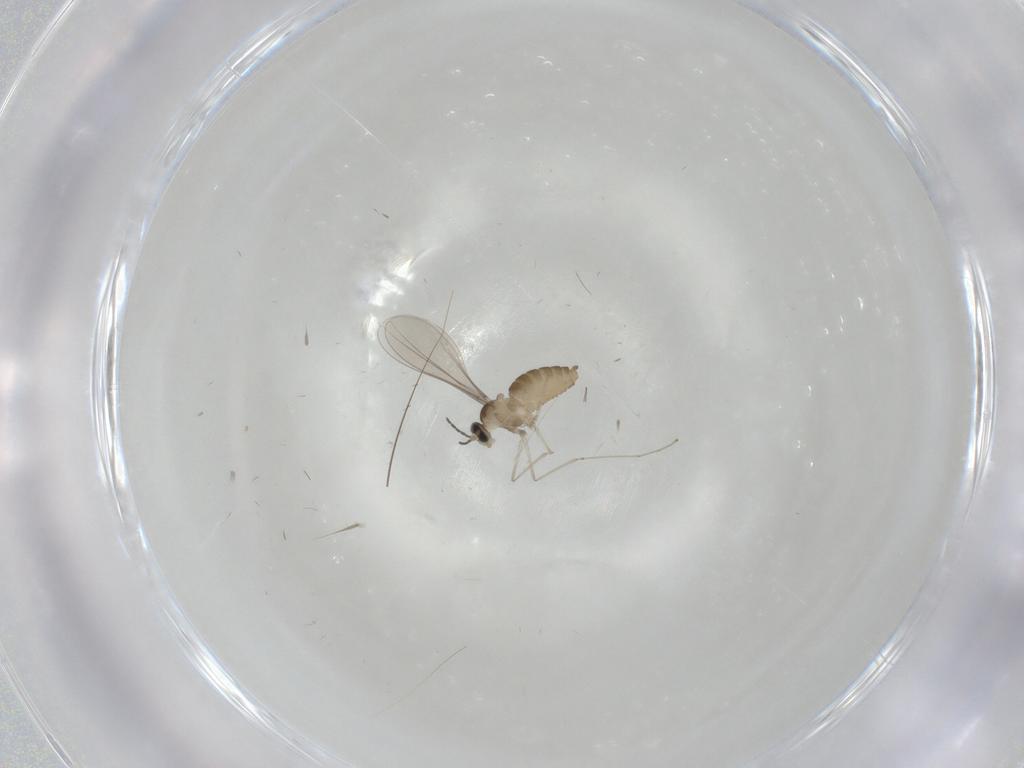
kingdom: Animalia
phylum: Arthropoda
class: Insecta
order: Diptera
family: Cecidomyiidae
